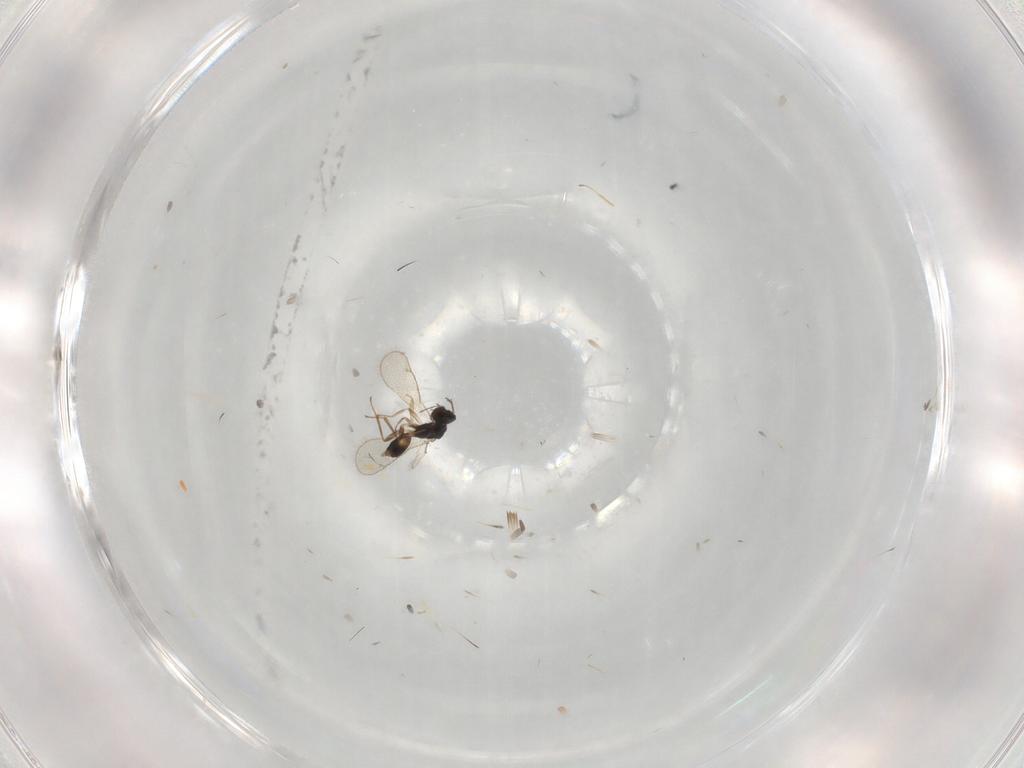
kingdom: Animalia
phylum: Arthropoda
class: Insecta
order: Hymenoptera
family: Eulophidae
